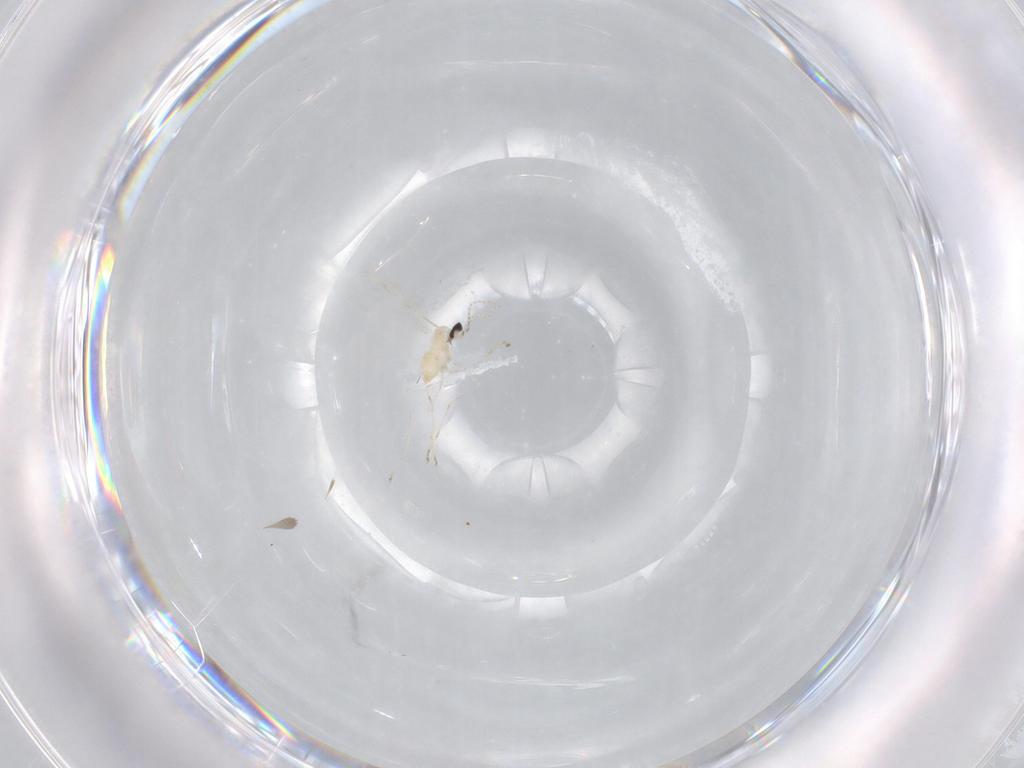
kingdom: Animalia
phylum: Arthropoda
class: Insecta
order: Diptera
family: Cecidomyiidae
